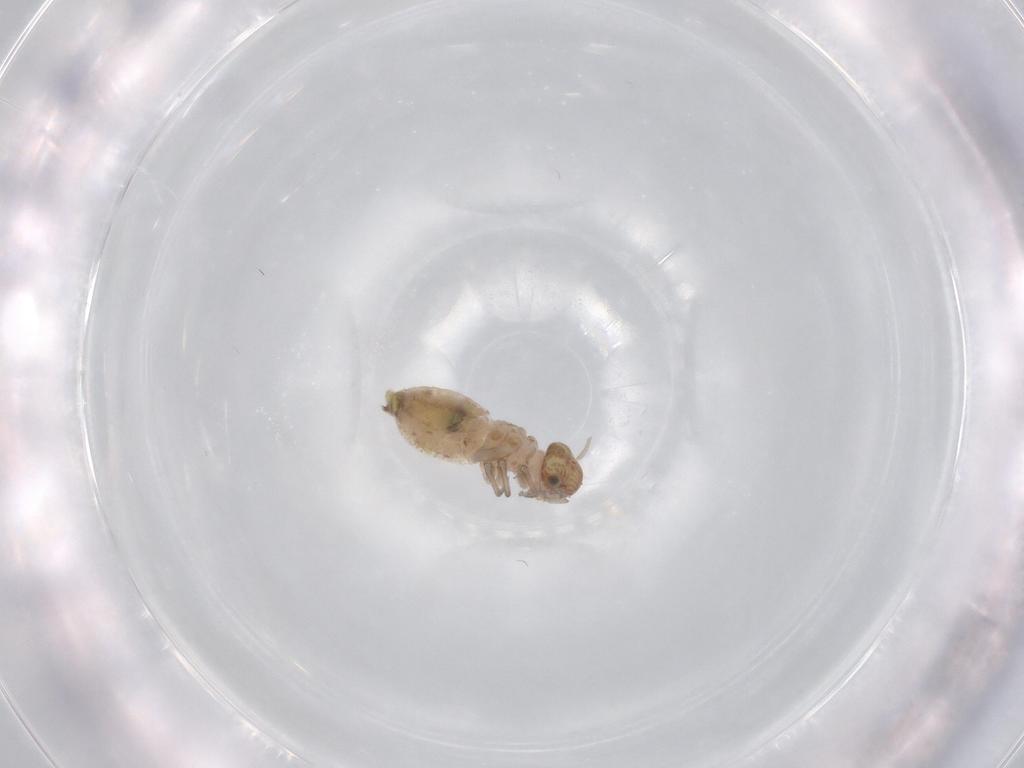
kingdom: Animalia
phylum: Arthropoda
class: Insecta
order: Psocodea
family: Psocidae
